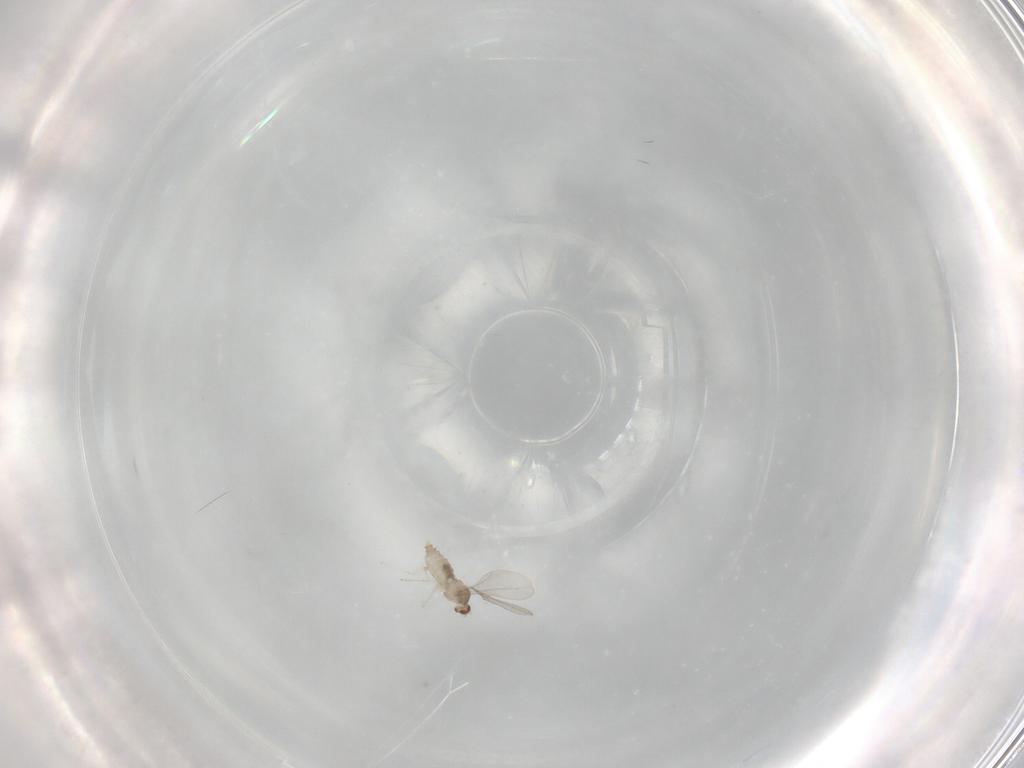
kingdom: Animalia
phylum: Arthropoda
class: Insecta
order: Diptera
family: Cecidomyiidae
